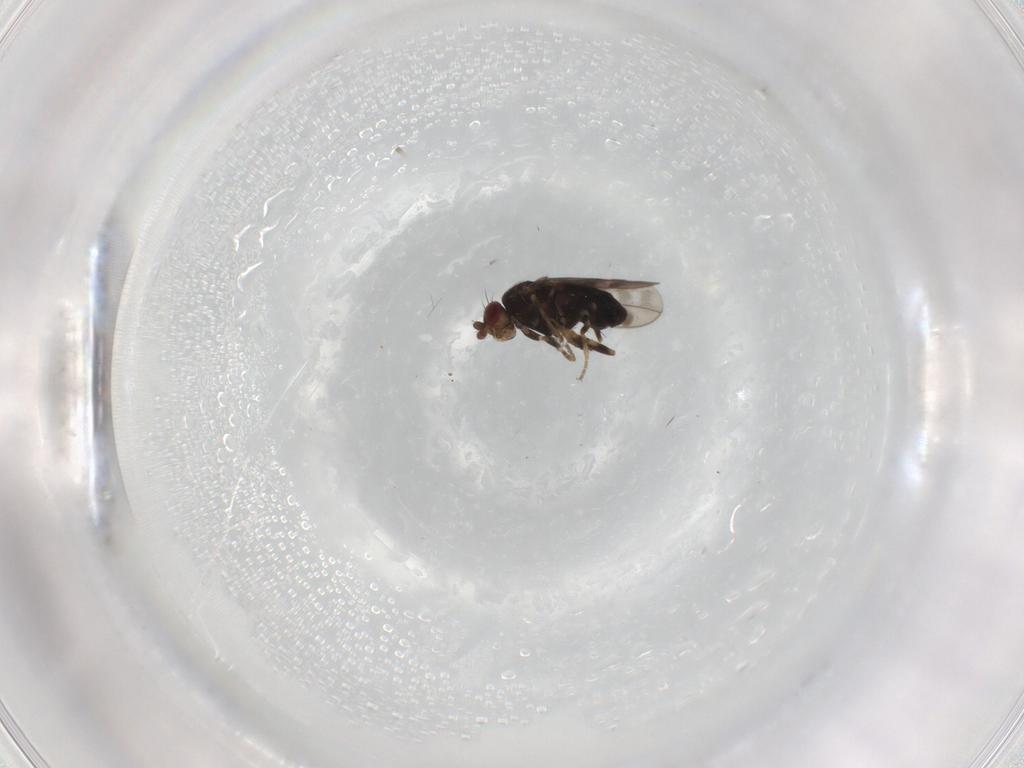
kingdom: Animalia
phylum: Arthropoda
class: Insecta
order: Diptera
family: Sphaeroceridae
